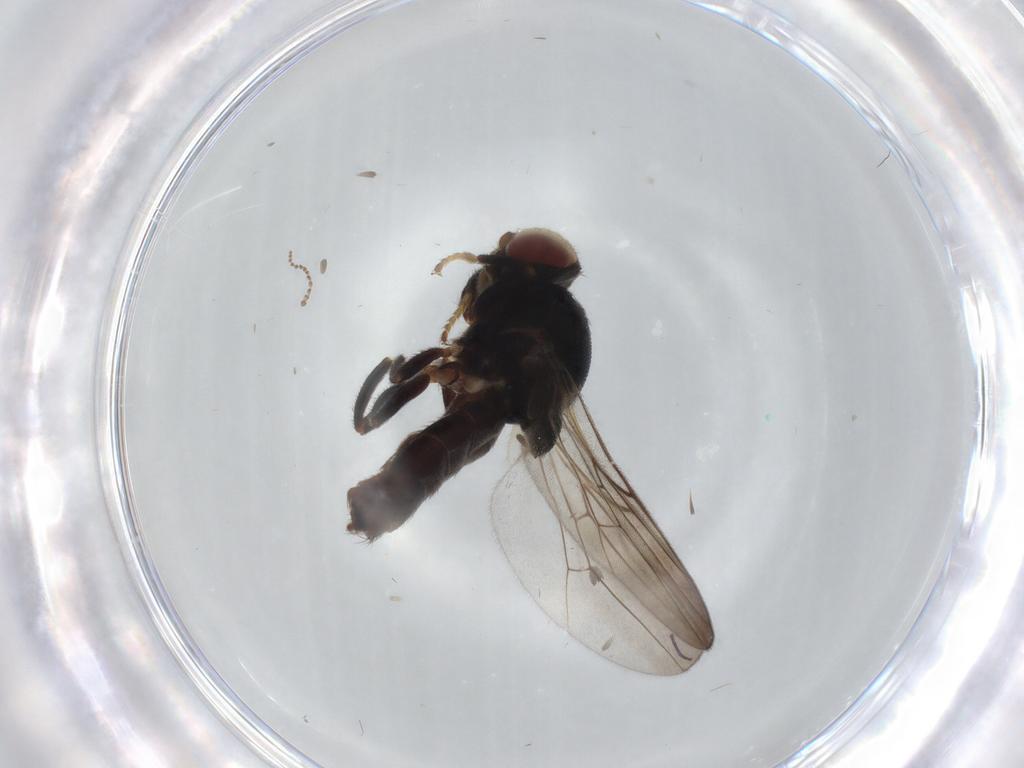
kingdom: Animalia
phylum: Arthropoda
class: Insecta
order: Diptera
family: Chloropidae
